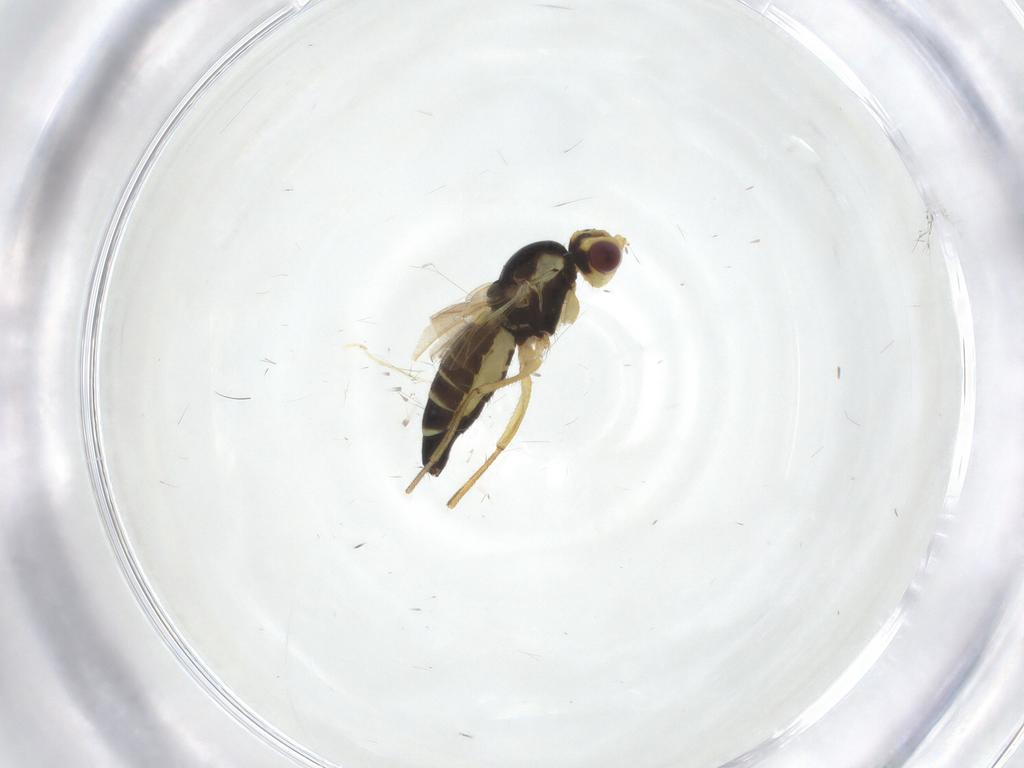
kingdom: Animalia
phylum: Arthropoda
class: Insecta
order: Diptera
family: Agromyzidae
